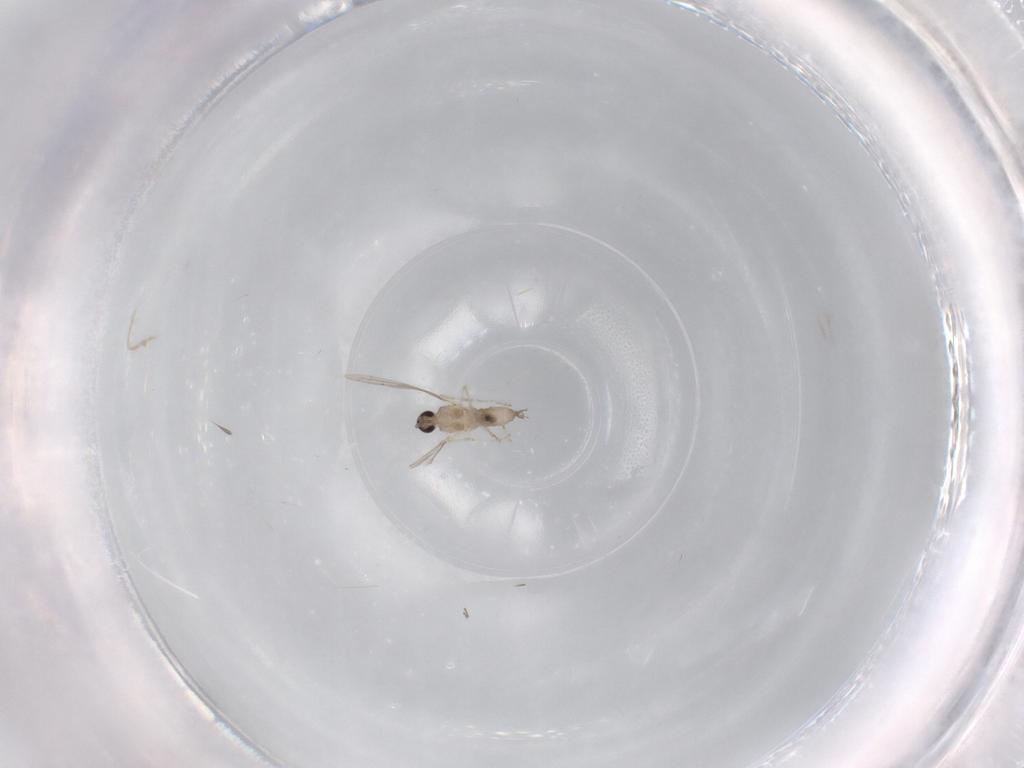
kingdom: Animalia
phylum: Arthropoda
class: Insecta
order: Diptera
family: Cecidomyiidae
